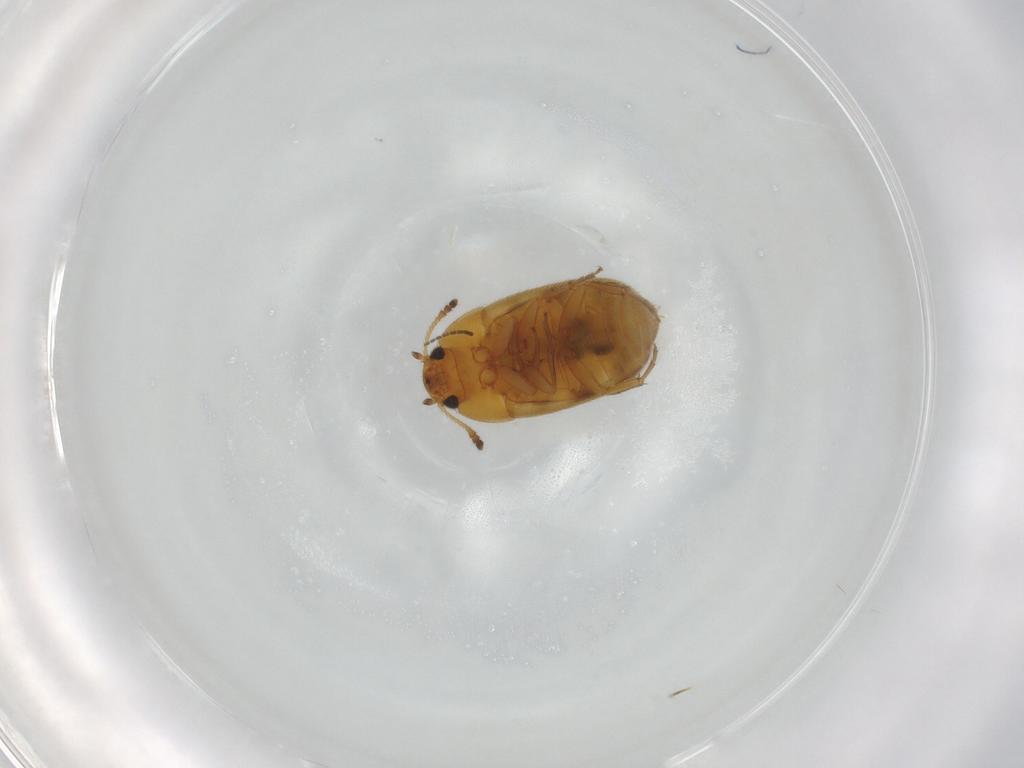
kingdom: Animalia
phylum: Arthropoda
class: Insecta
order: Coleoptera
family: Mycetophagidae
